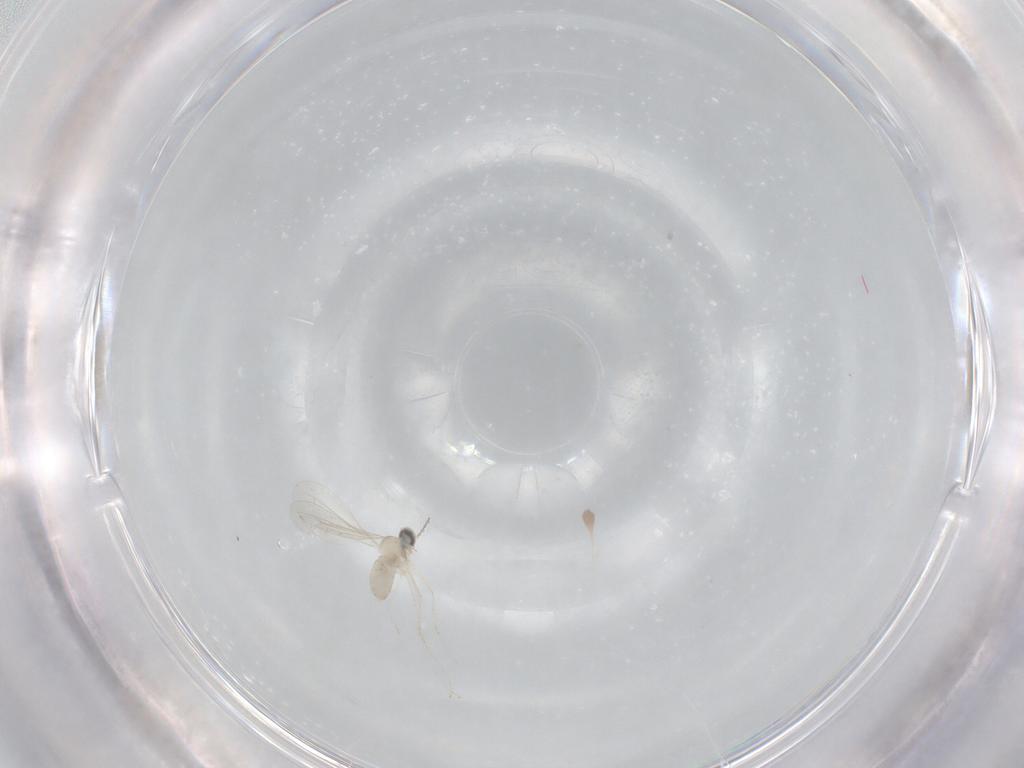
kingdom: Animalia
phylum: Arthropoda
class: Insecta
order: Diptera
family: Cecidomyiidae
